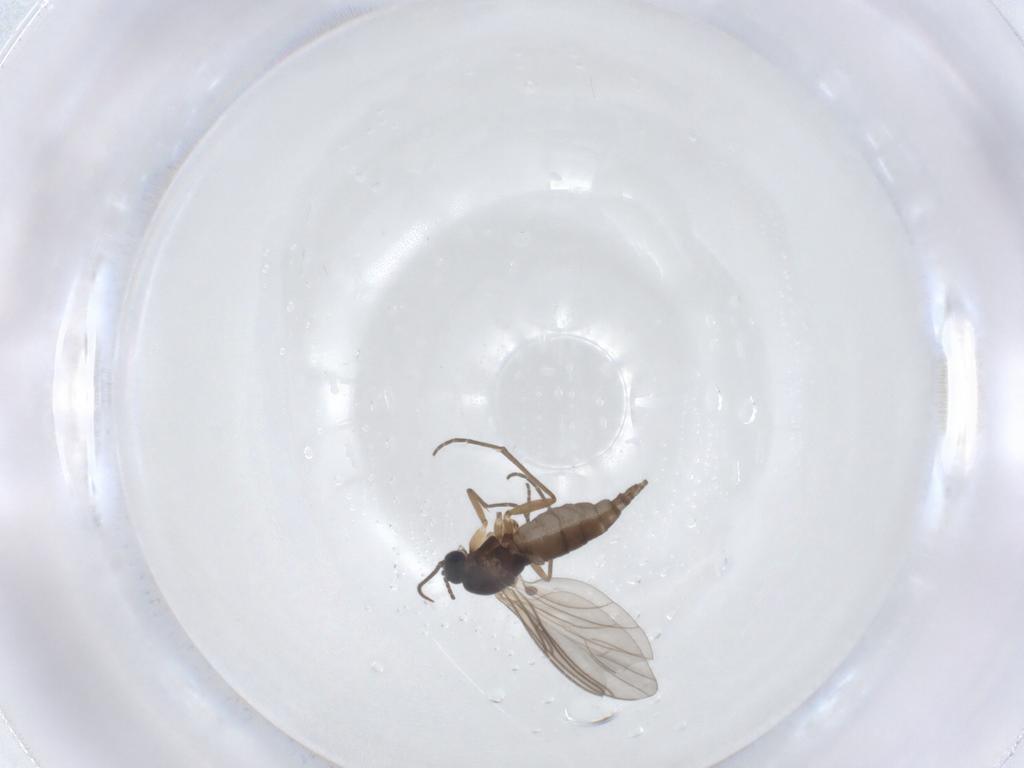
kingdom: Animalia
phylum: Arthropoda
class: Insecta
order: Diptera
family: Sciaridae
